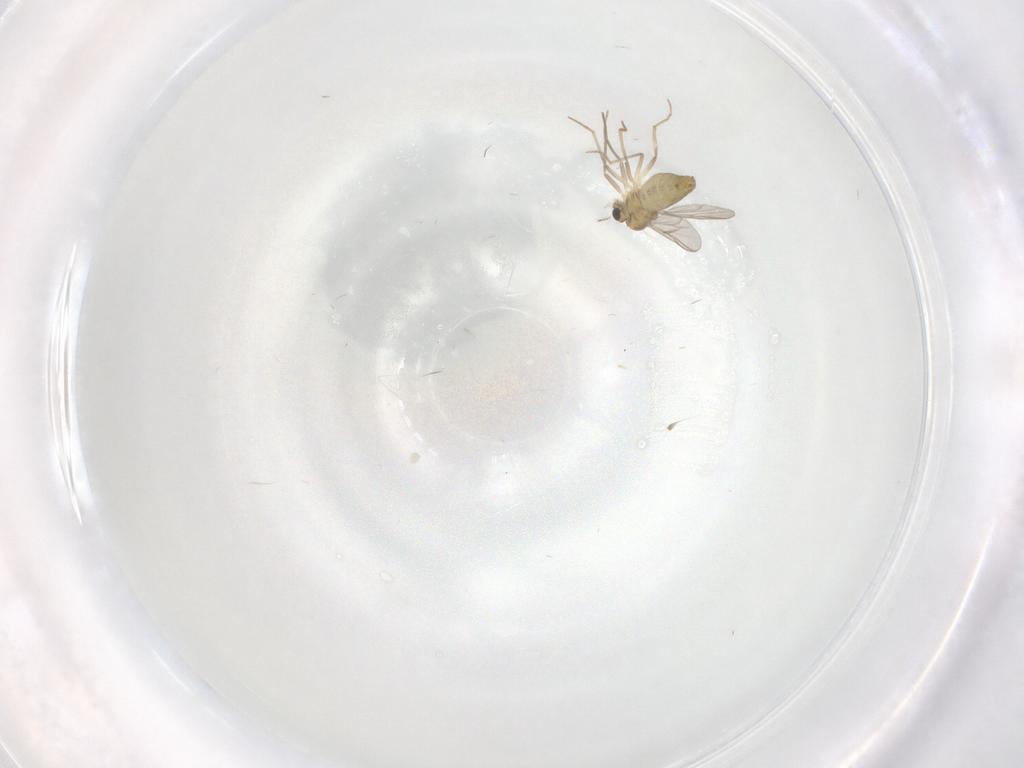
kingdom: Animalia
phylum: Arthropoda
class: Insecta
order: Diptera
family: Chironomidae
